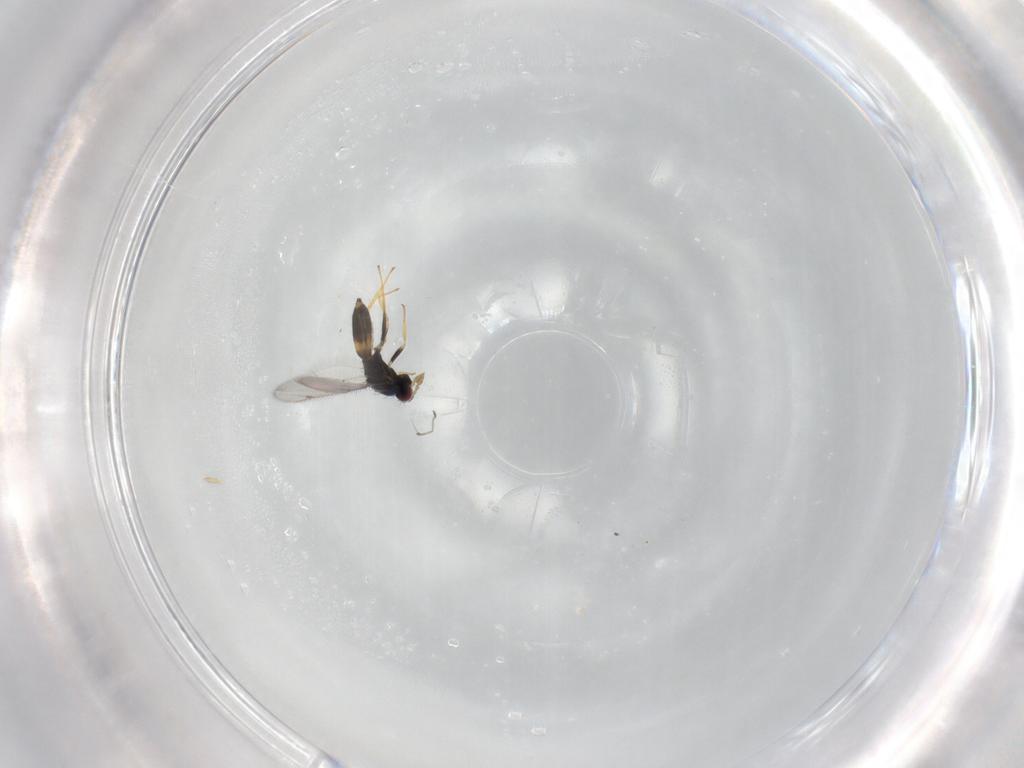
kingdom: Animalia
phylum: Arthropoda
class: Insecta
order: Hymenoptera
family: Eulophidae
